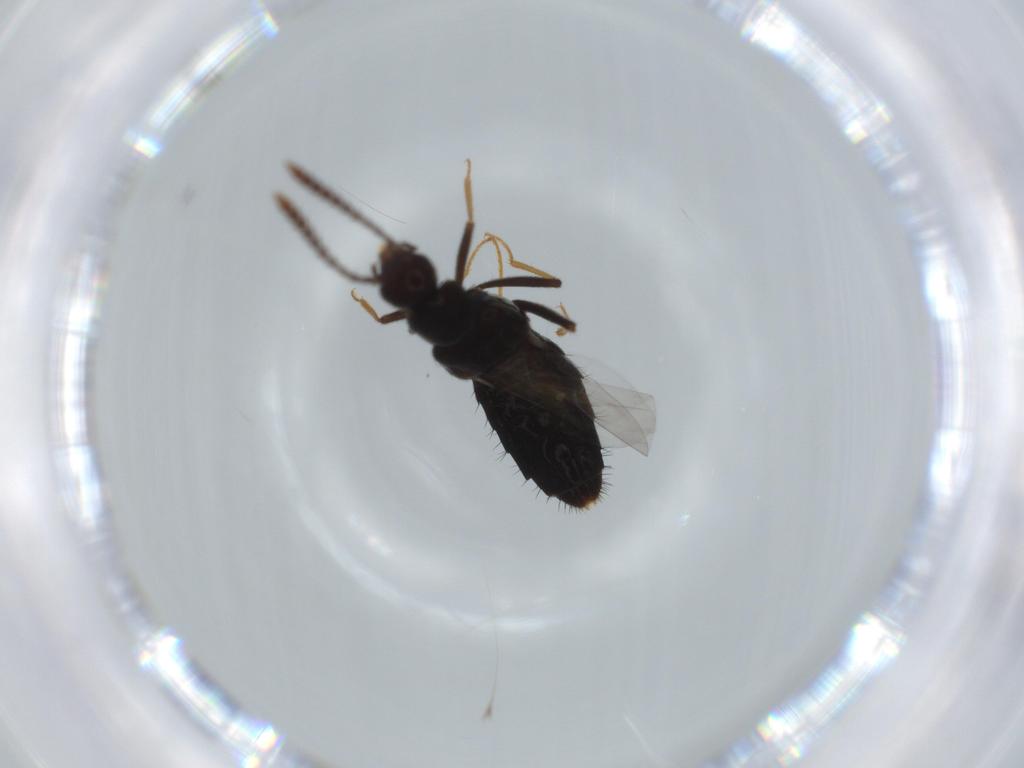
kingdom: Animalia
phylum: Arthropoda
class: Insecta
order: Coleoptera
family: Staphylinidae
